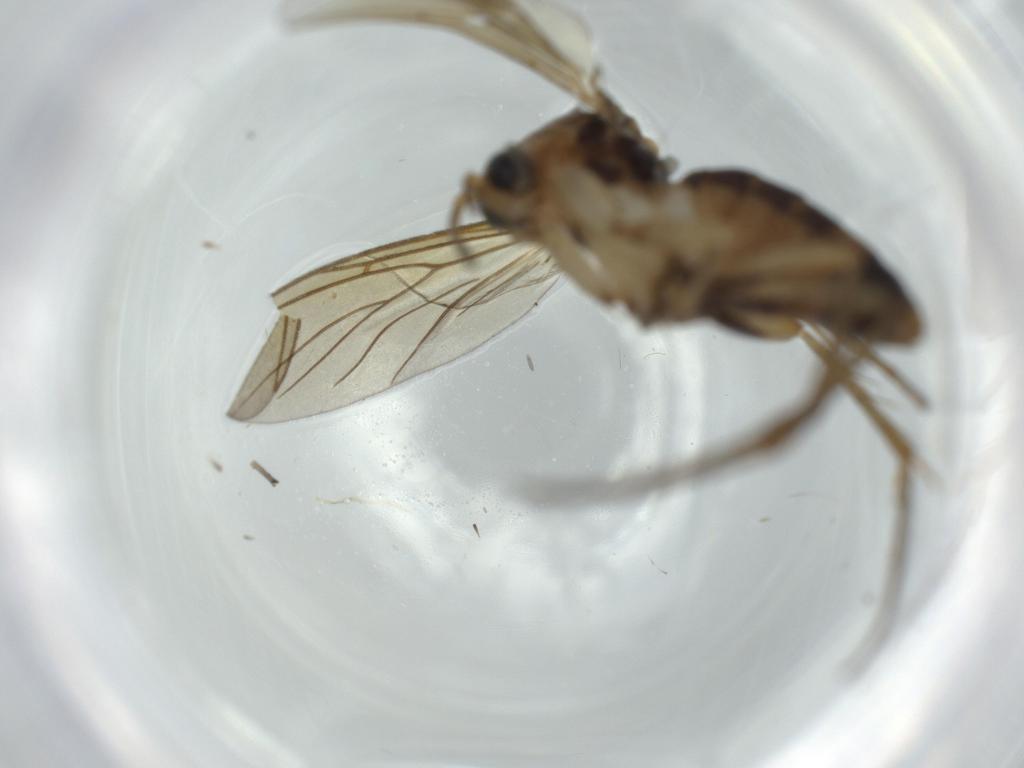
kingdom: Animalia
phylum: Arthropoda
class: Insecta
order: Diptera
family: Mycetophilidae
